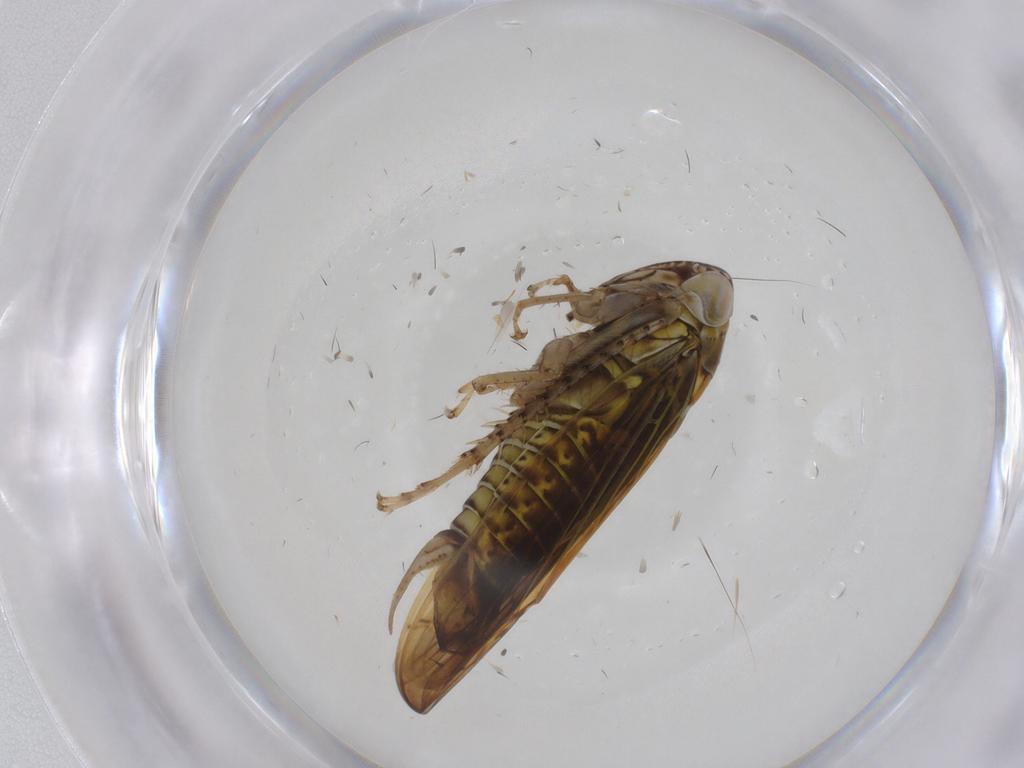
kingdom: Animalia
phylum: Arthropoda
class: Insecta
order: Hemiptera
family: Cicadellidae
